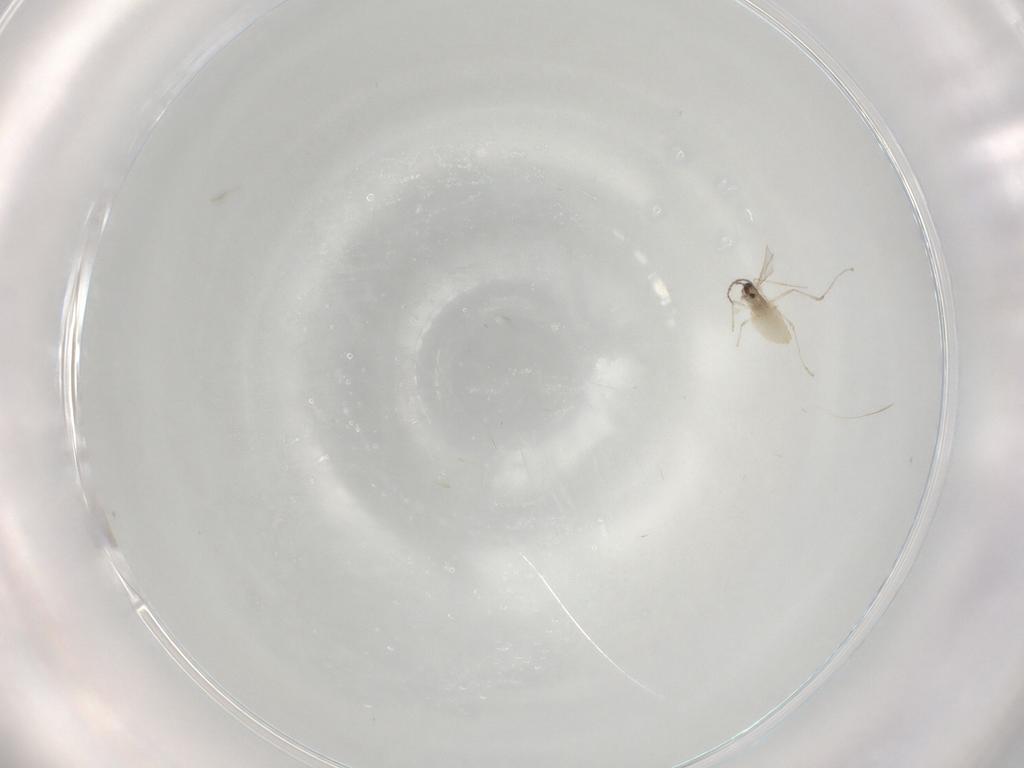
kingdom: Animalia
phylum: Arthropoda
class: Insecta
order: Diptera
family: Cecidomyiidae
